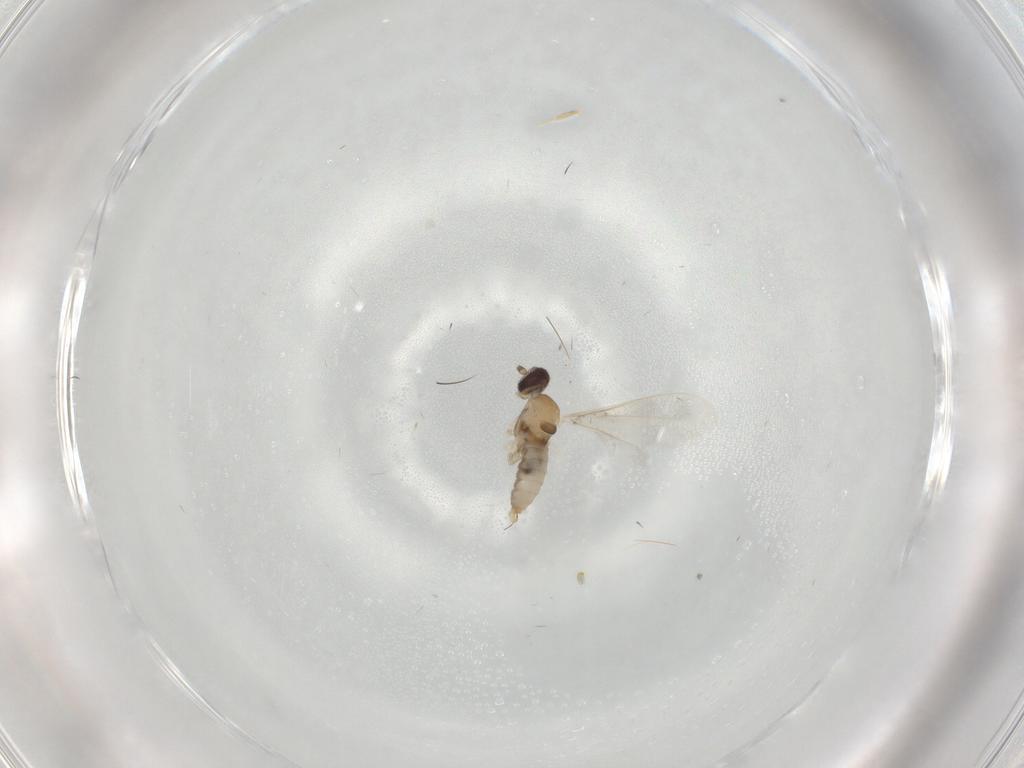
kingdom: Animalia
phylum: Arthropoda
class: Insecta
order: Diptera
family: Cecidomyiidae
